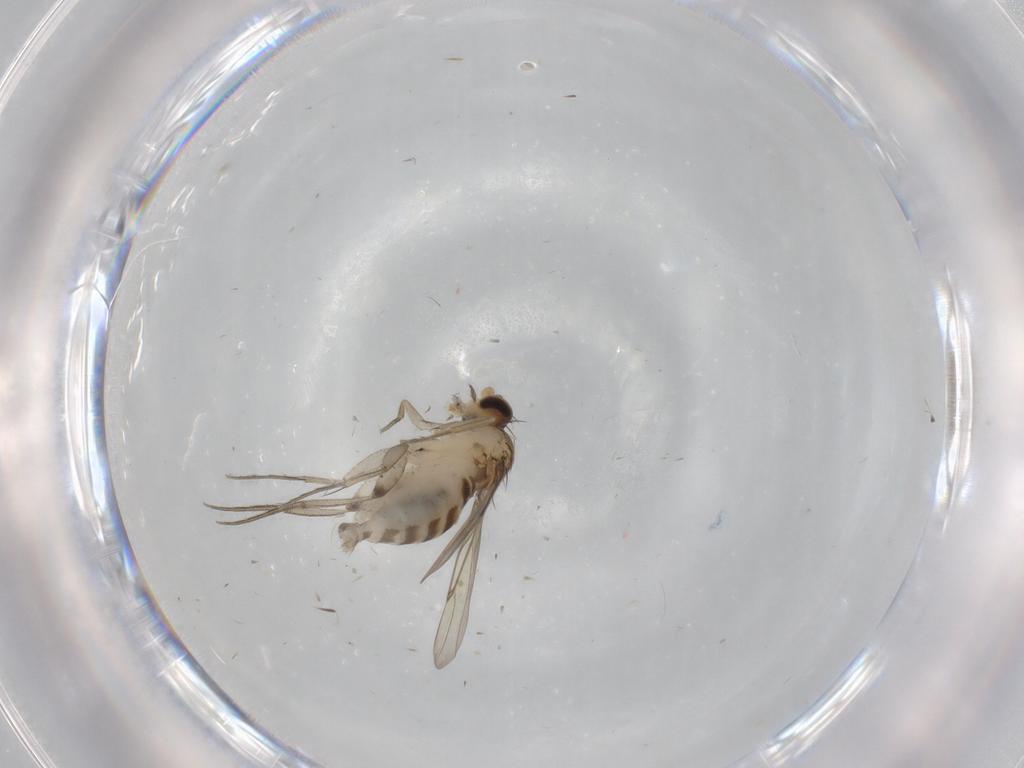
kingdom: Animalia
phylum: Arthropoda
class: Insecta
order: Diptera
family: Phoridae
